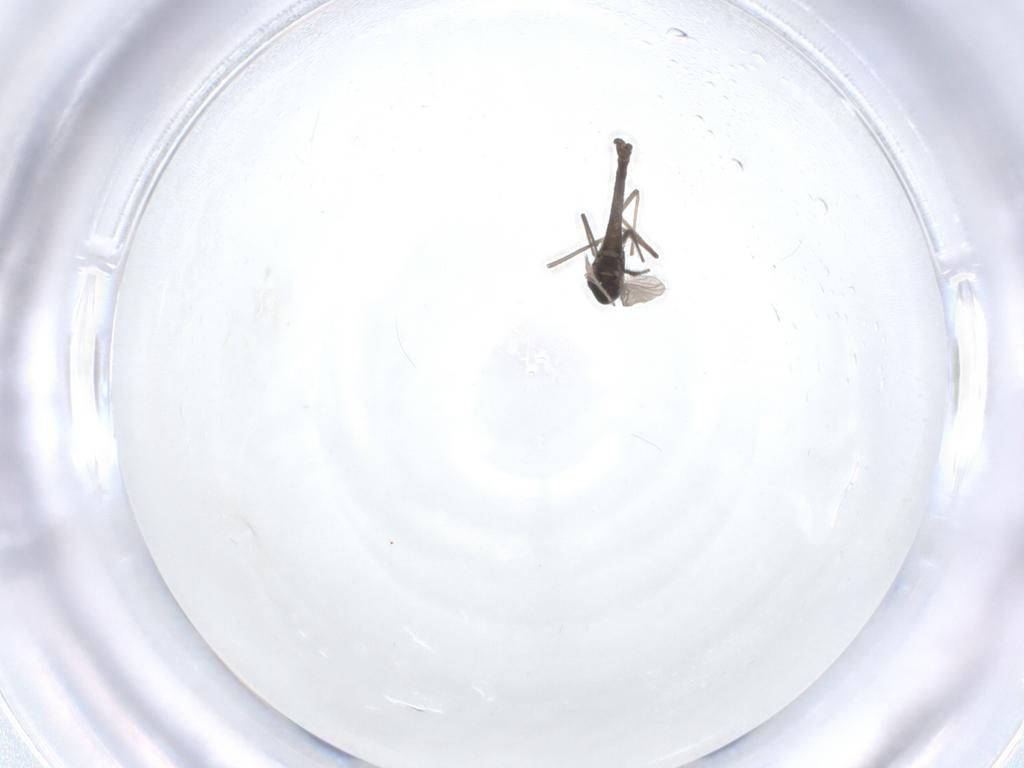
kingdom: Animalia
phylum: Arthropoda
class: Insecta
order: Diptera
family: Chironomidae
